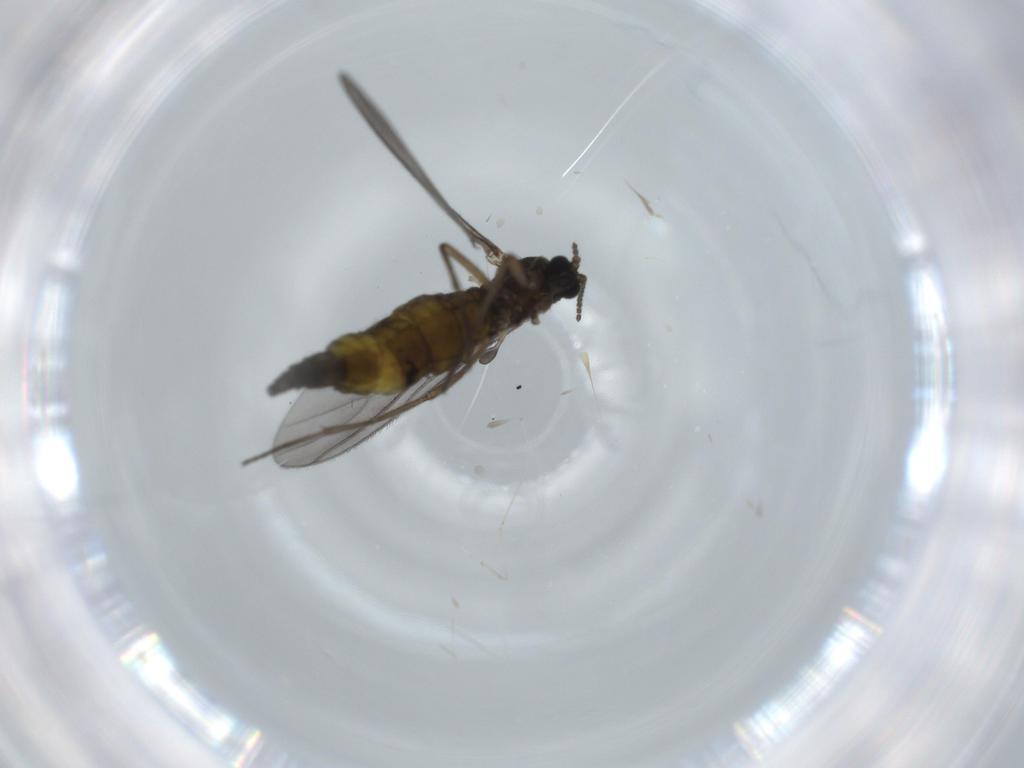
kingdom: Animalia
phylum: Arthropoda
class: Insecta
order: Diptera
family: Sciaridae
